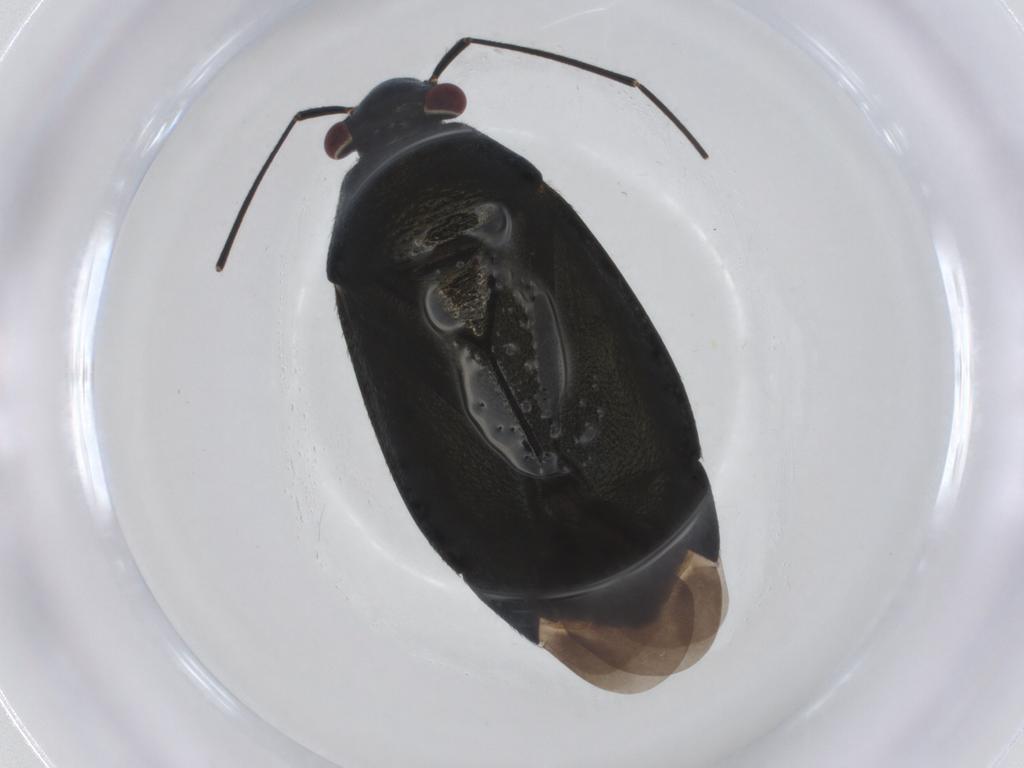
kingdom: Animalia
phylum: Arthropoda
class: Insecta
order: Hemiptera
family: Miridae
